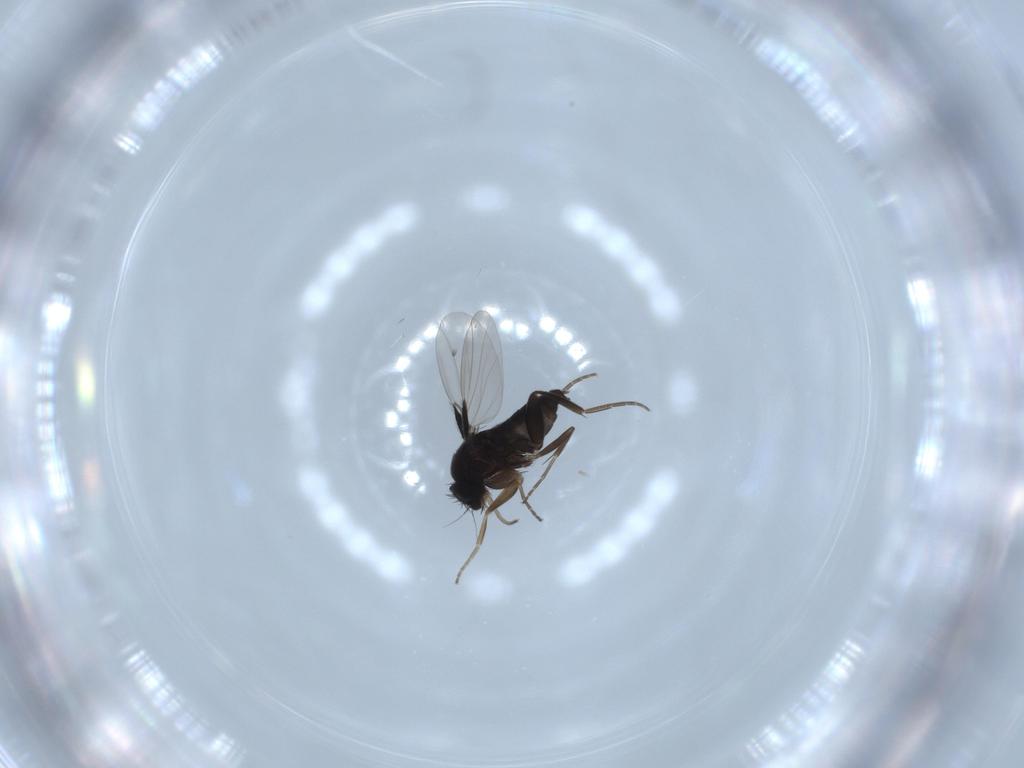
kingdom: Animalia
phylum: Arthropoda
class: Insecta
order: Diptera
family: Phoridae
